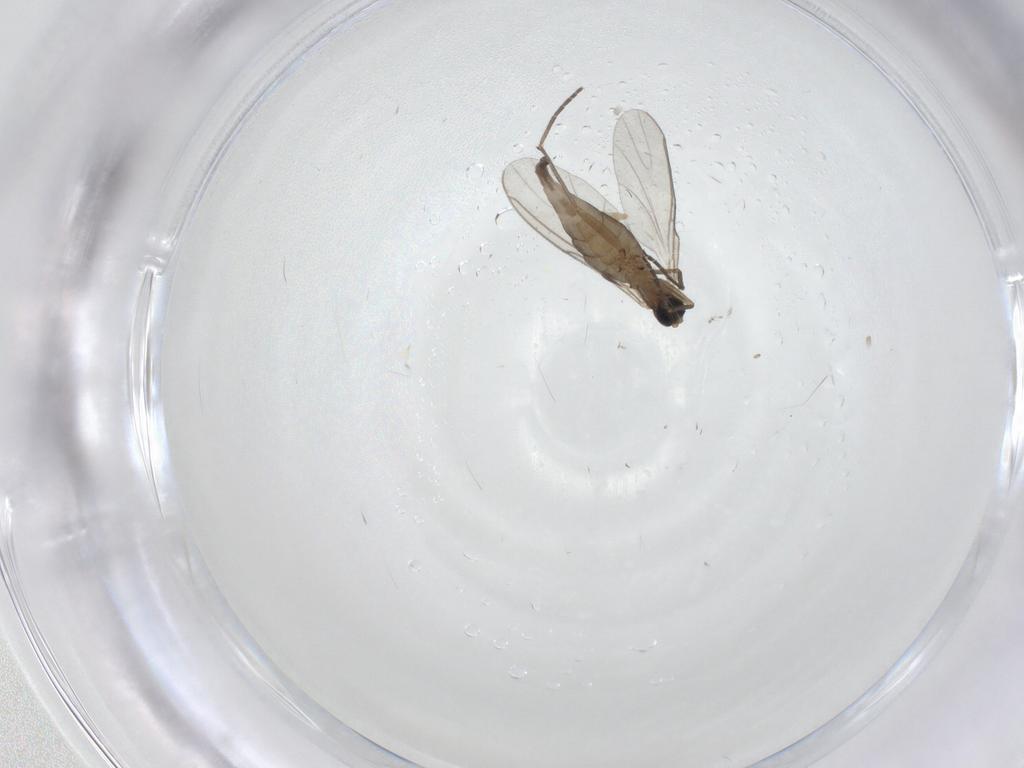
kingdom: Animalia
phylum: Arthropoda
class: Insecta
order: Diptera
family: Sciaridae
